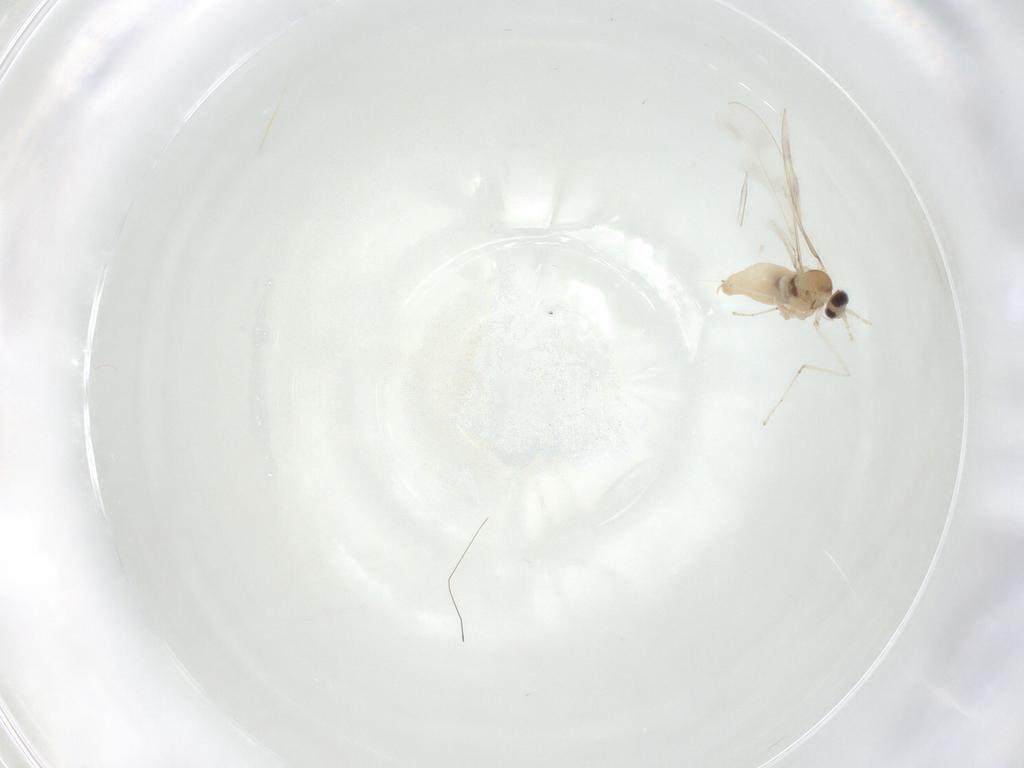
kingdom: Animalia
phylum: Arthropoda
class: Insecta
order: Diptera
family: Cecidomyiidae
